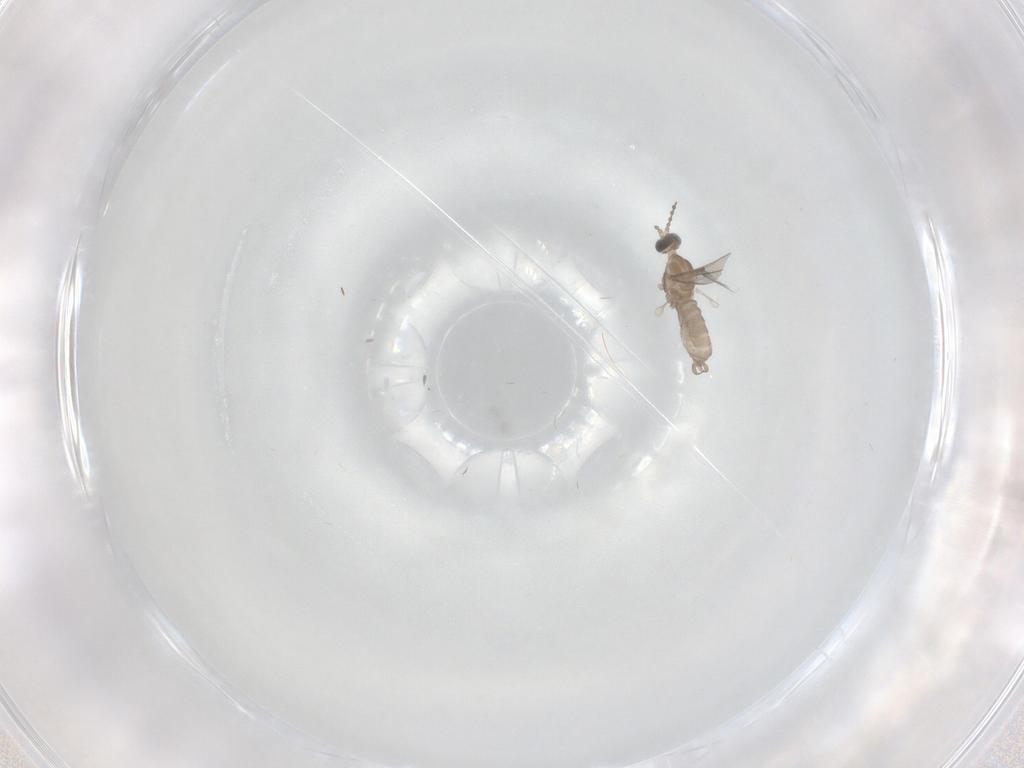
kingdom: Animalia
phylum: Arthropoda
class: Insecta
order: Diptera
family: Cecidomyiidae
